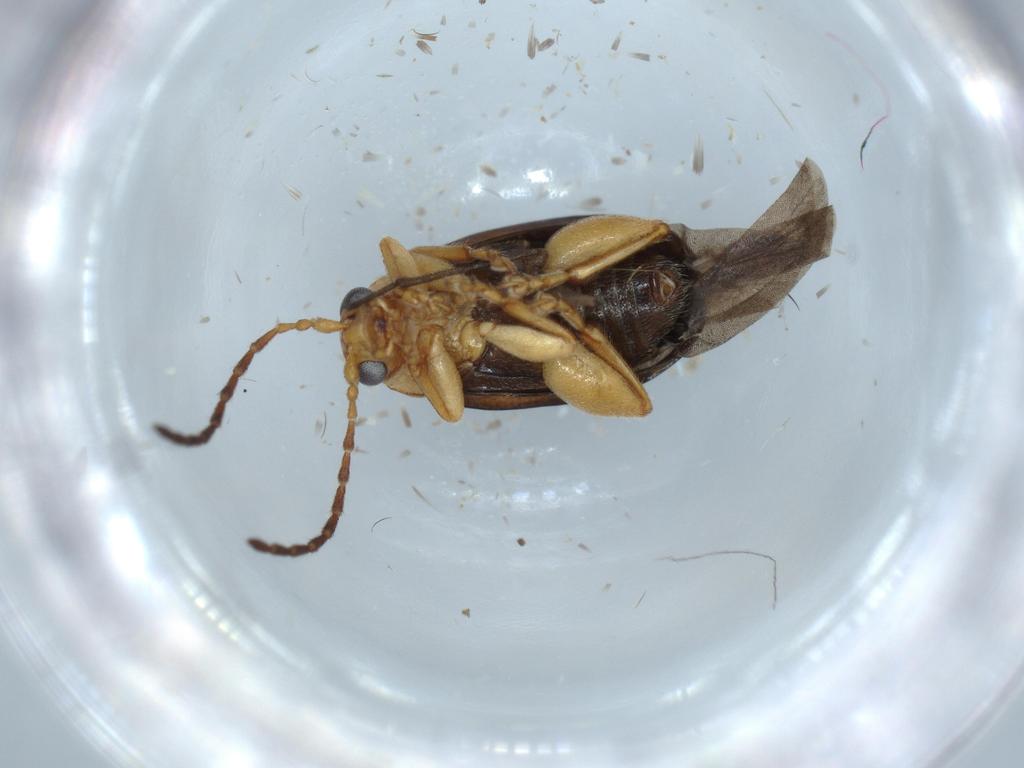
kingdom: Animalia
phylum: Arthropoda
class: Insecta
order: Coleoptera
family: Chrysomelidae
